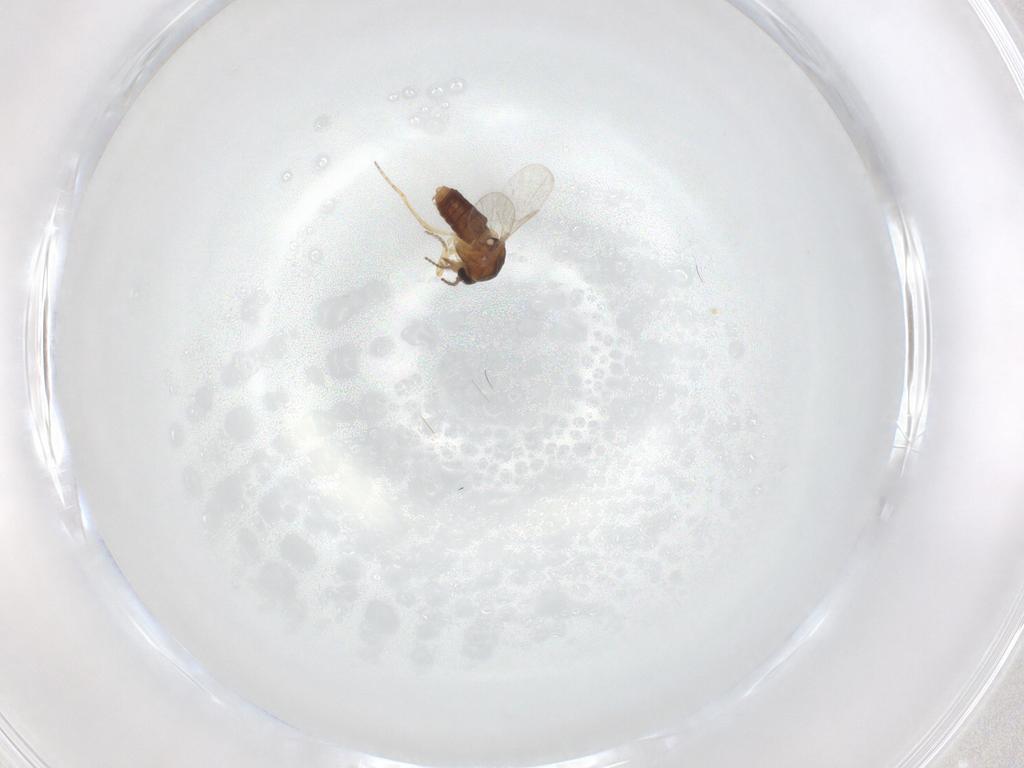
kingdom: Animalia
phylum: Arthropoda
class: Insecta
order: Diptera
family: Ceratopogonidae
